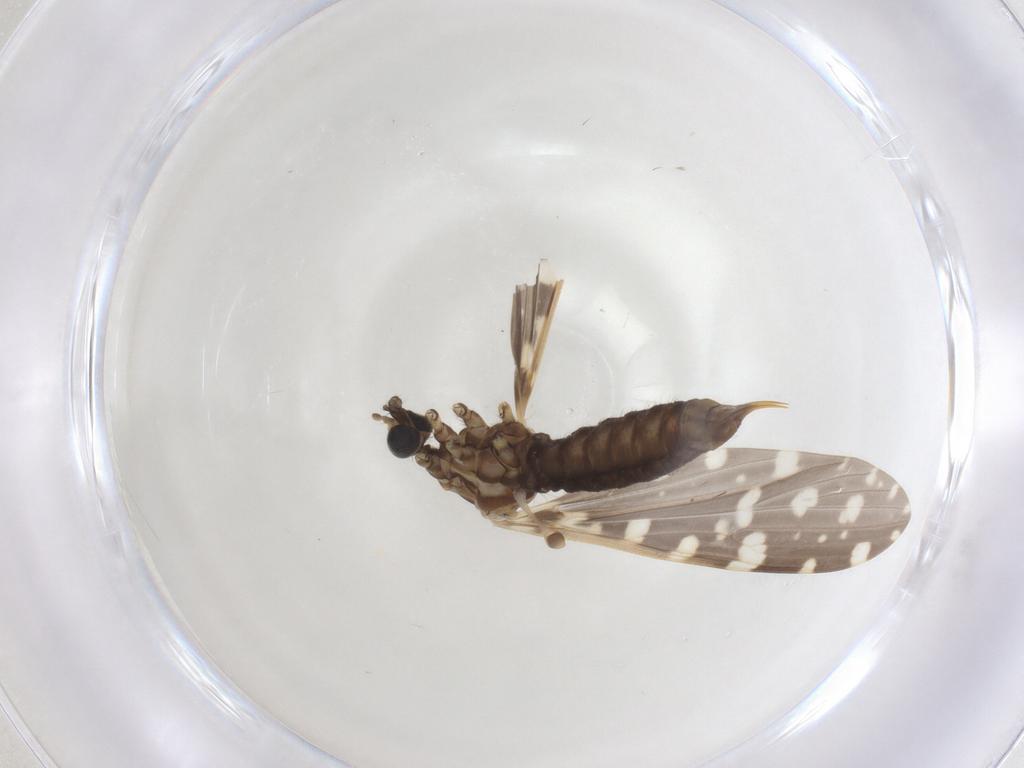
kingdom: Animalia
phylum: Arthropoda
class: Insecta
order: Diptera
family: Limoniidae
